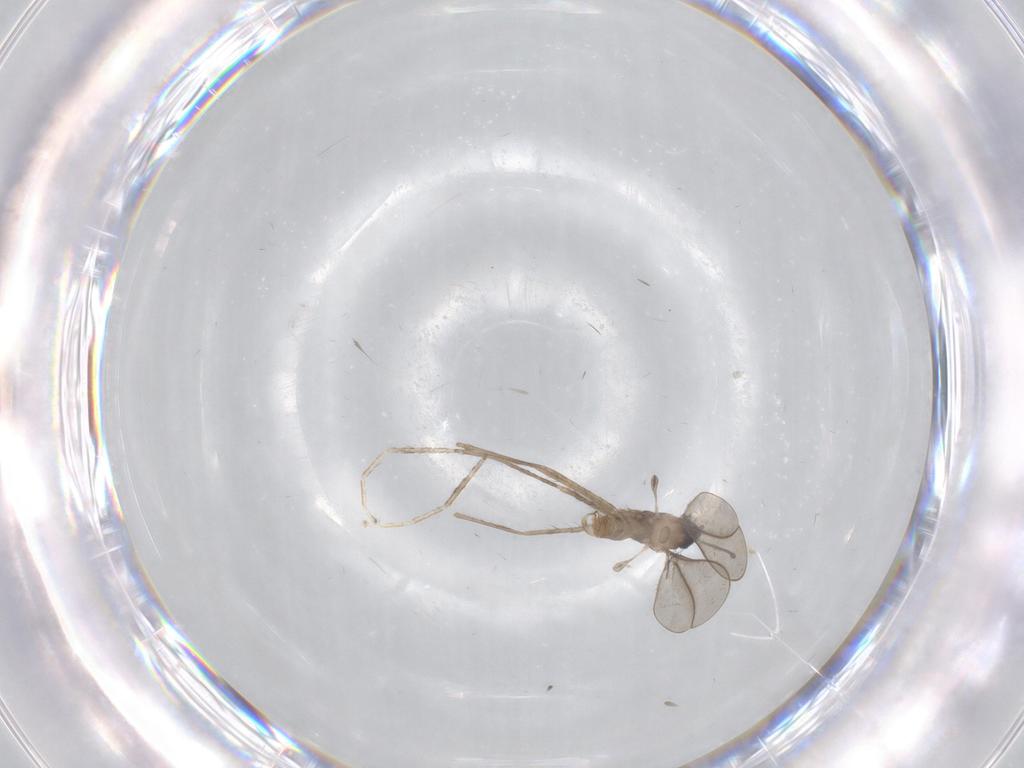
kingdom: Animalia
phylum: Arthropoda
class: Insecta
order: Diptera
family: Cecidomyiidae
